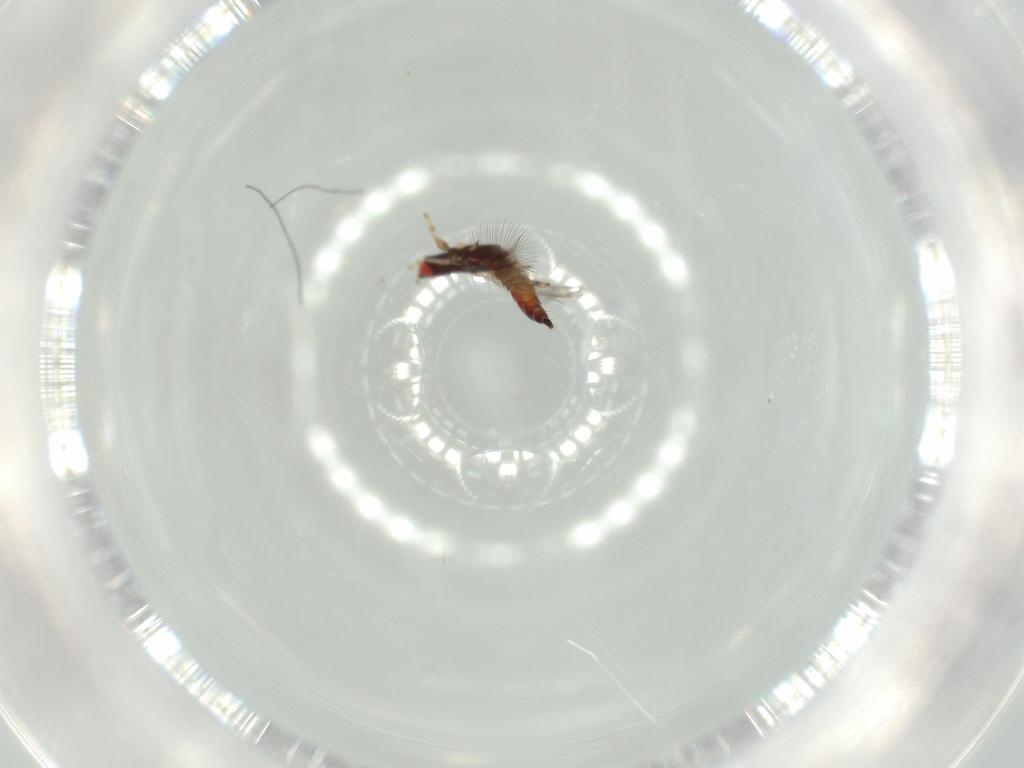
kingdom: Animalia
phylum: Arthropoda
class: Insecta
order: Thysanoptera
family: Phlaeothripidae
